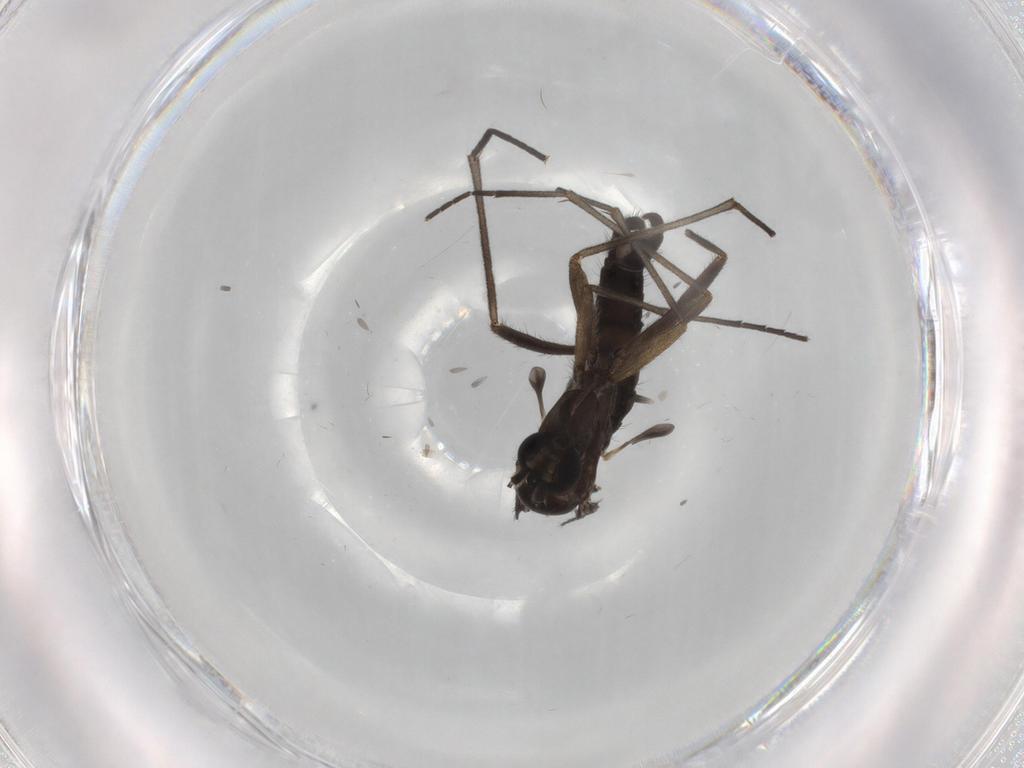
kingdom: Animalia
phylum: Arthropoda
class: Insecta
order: Diptera
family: Sciaridae
